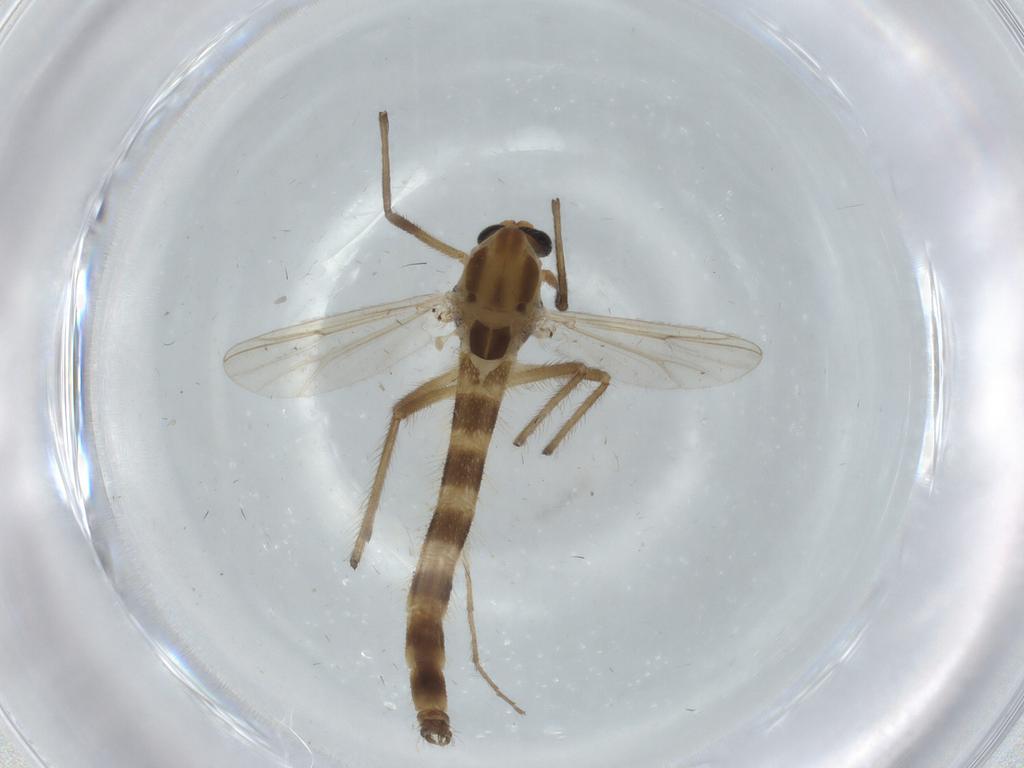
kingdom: Animalia
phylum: Arthropoda
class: Insecta
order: Diptera
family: Chironomidae
